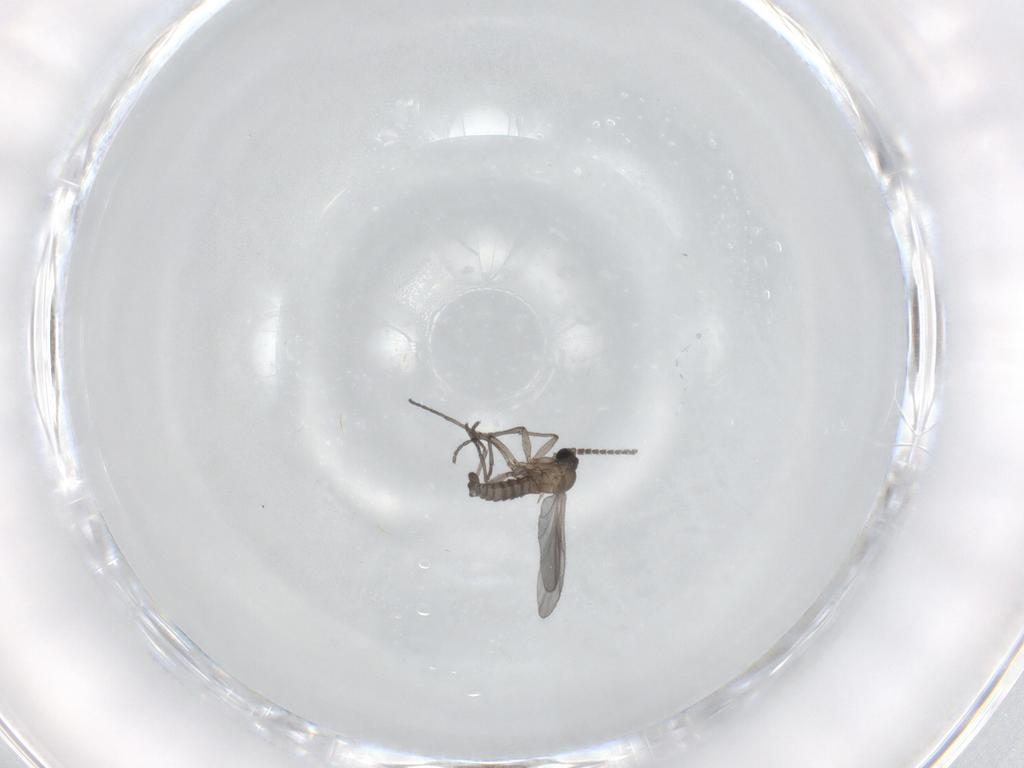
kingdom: Animalia
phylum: Arthropoda
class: Insecta
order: Diptera
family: Sciaridae
